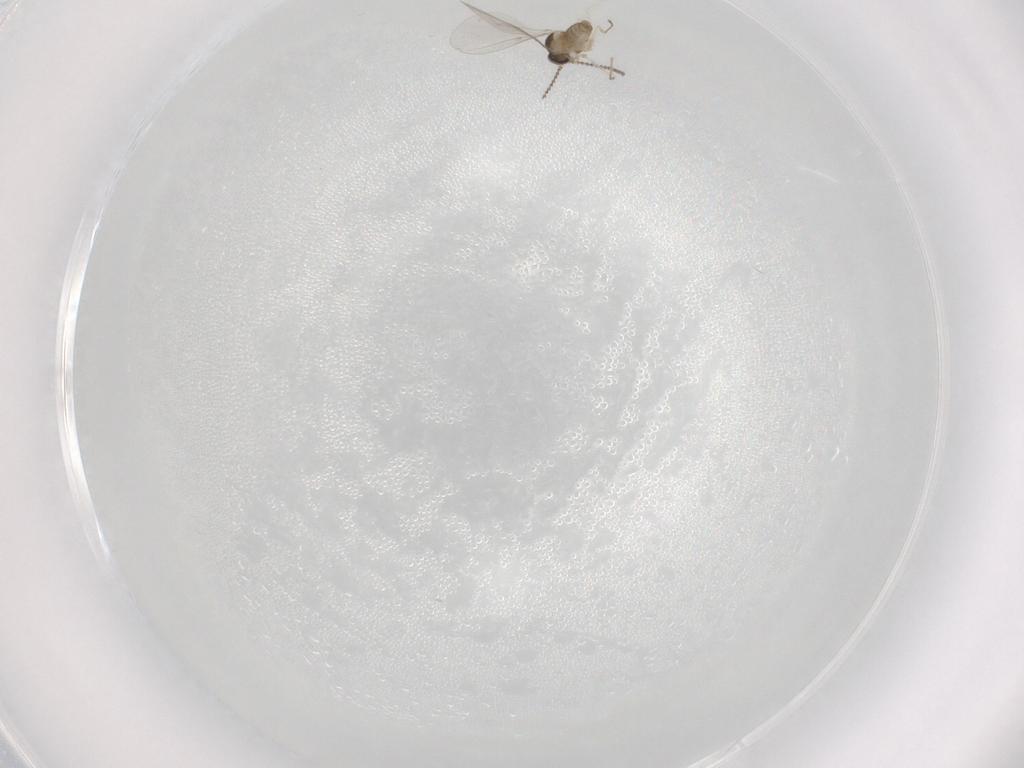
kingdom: Animalia
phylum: Arthropoda
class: Insecta
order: Diptera
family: Cecidomyiidae
